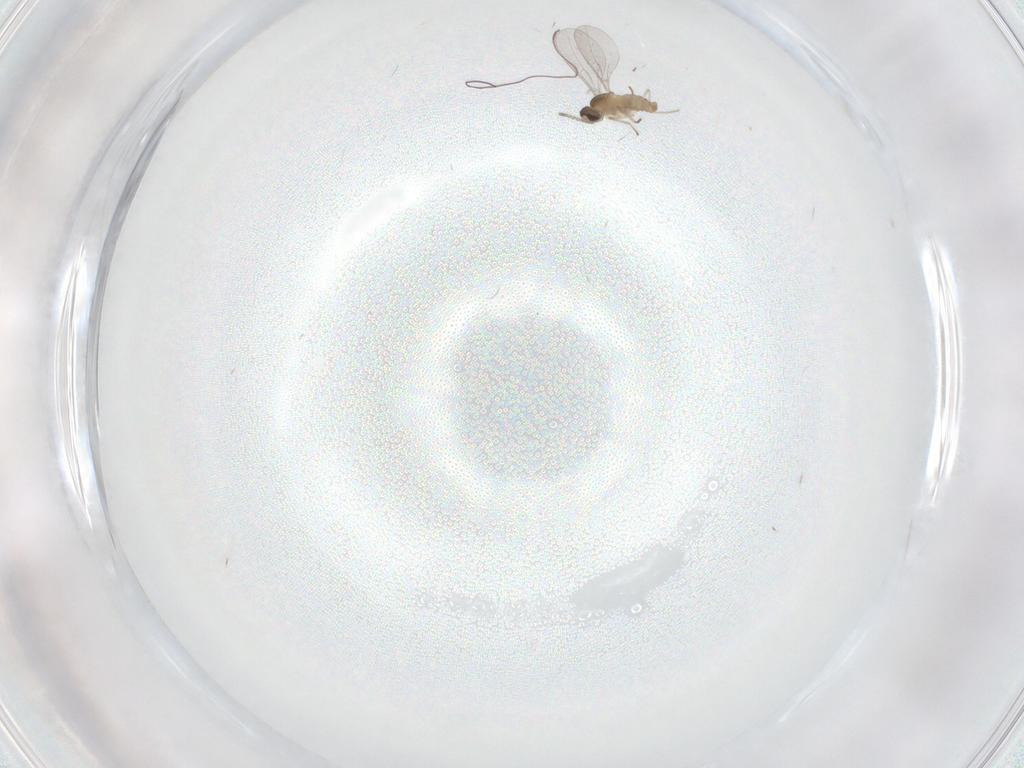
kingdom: Animalia
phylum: Arthropoda
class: Insecta
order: Diptera
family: Cecidomyiidae
